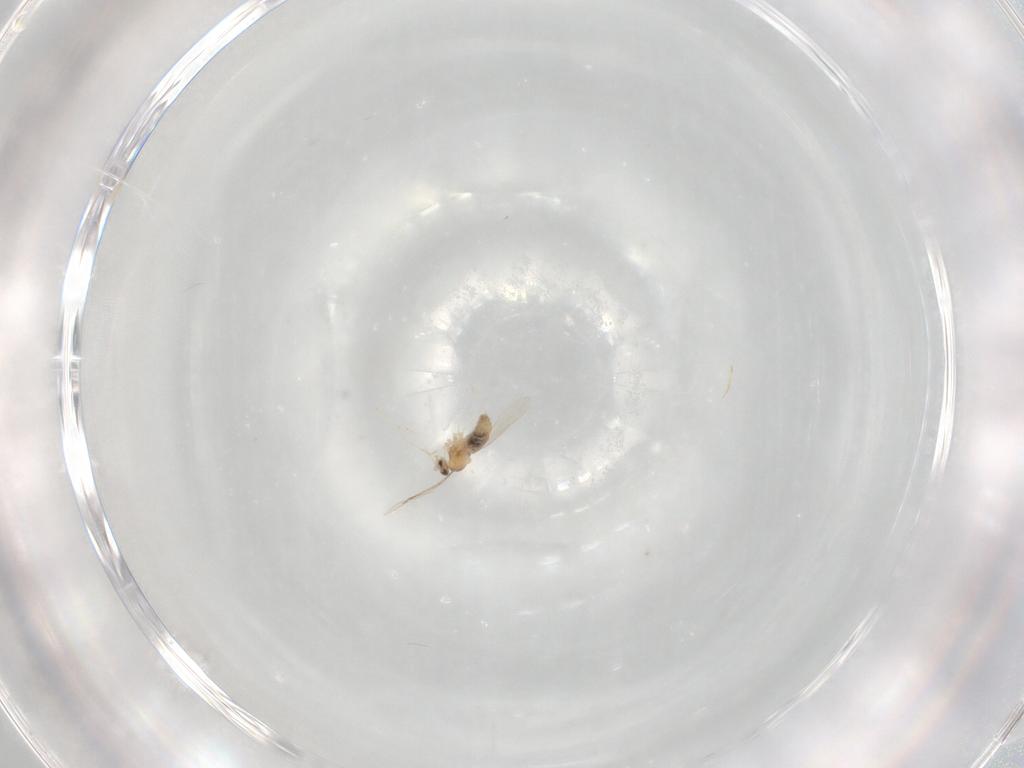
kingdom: Animalia
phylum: Arthropoda
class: Insecta
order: Diptera
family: Cecidomyiidae
